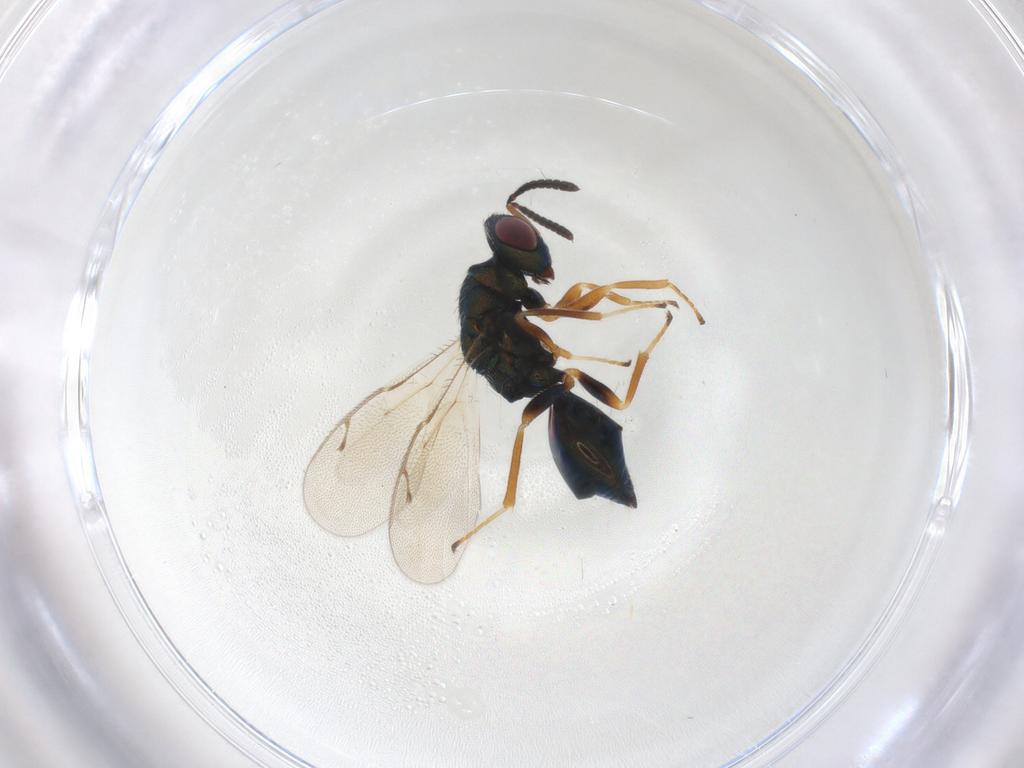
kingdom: Animalia
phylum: Arthropoda
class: Insecta
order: Hymenoptera
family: Pteromalidae
